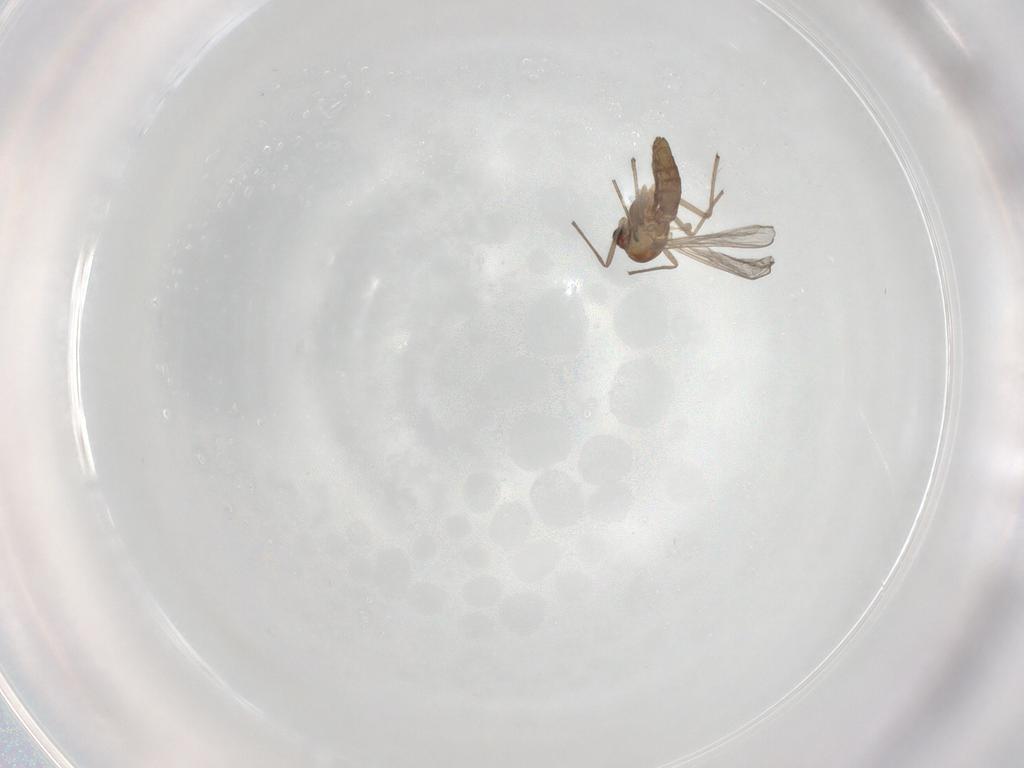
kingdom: Animalia
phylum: Arthropoda
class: Insecta
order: Diptera
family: Chironomidae
